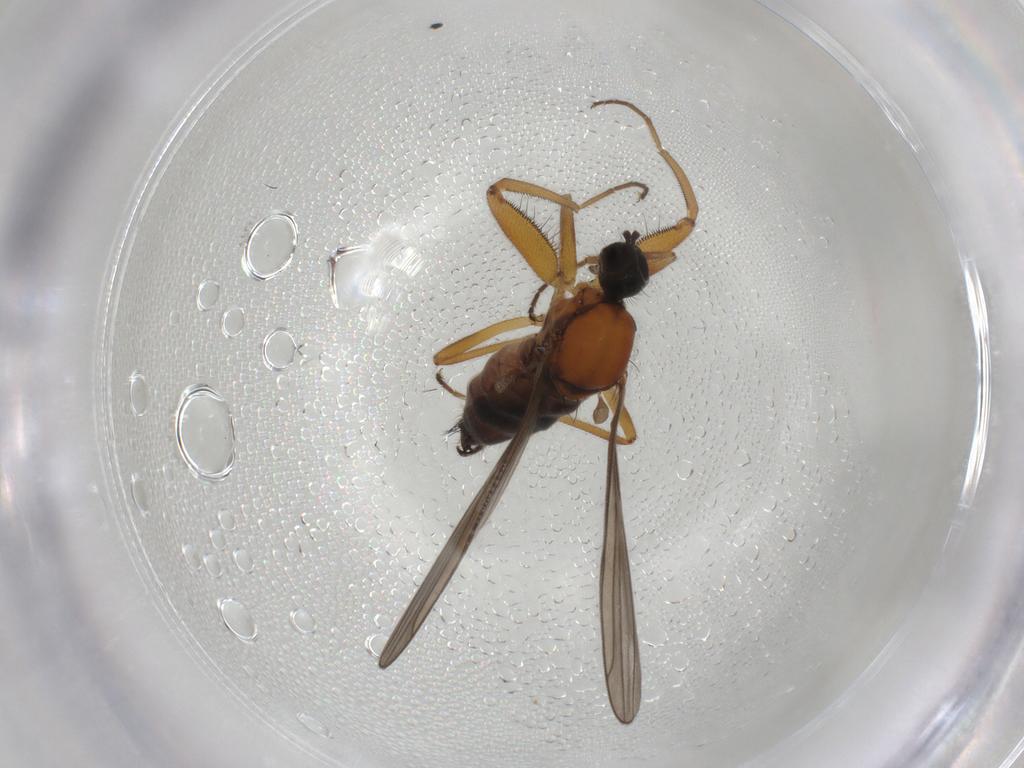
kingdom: Animalia
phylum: Arthropoda
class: Insecta
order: Diptera
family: Hybotidae
